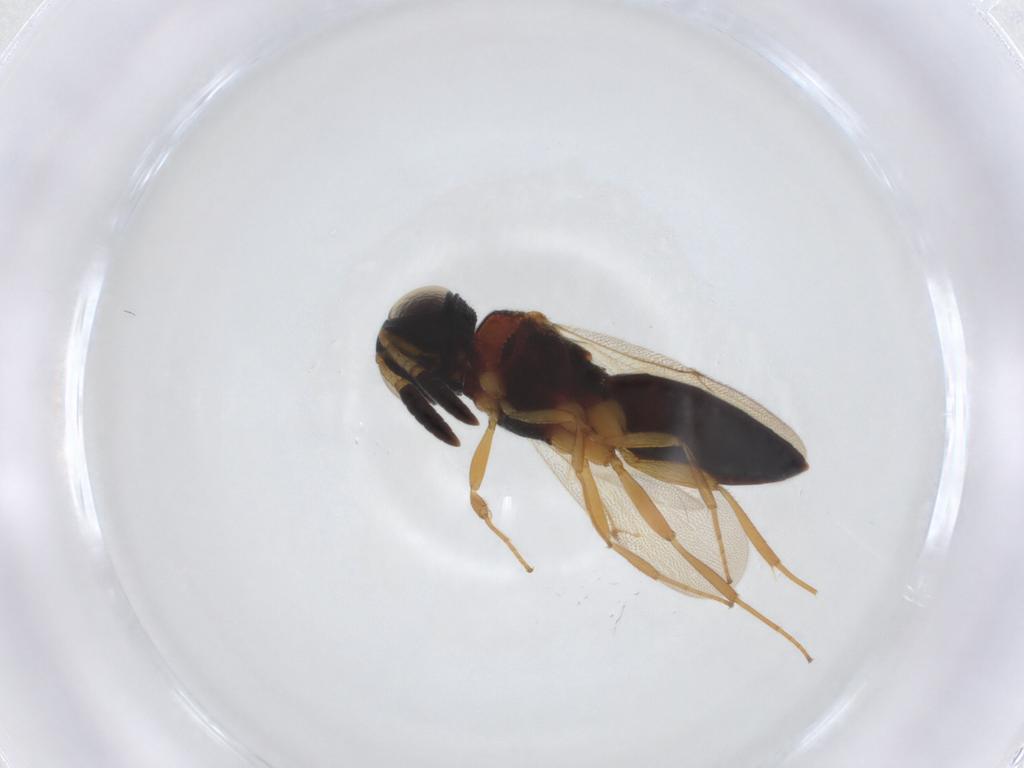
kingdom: Animalia
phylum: Arthropoda
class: Insecta
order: Hymenoptera
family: Scelionidae
